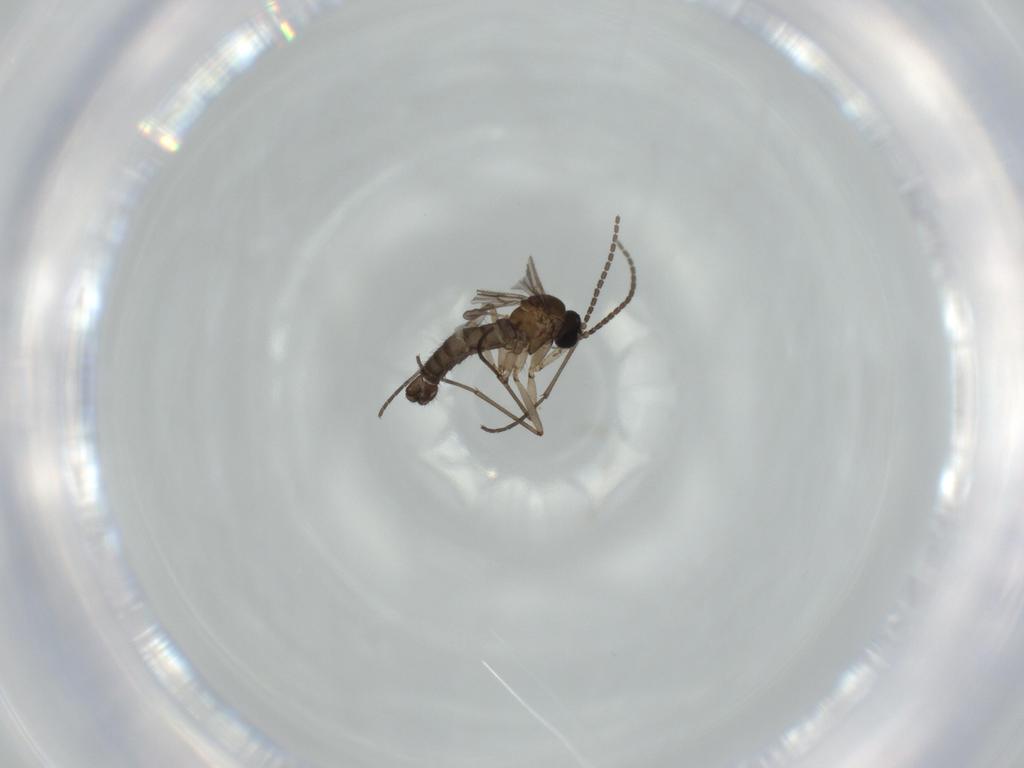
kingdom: Animalia
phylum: Arthropoda
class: Insecta
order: Diptera
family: Sciaridae
